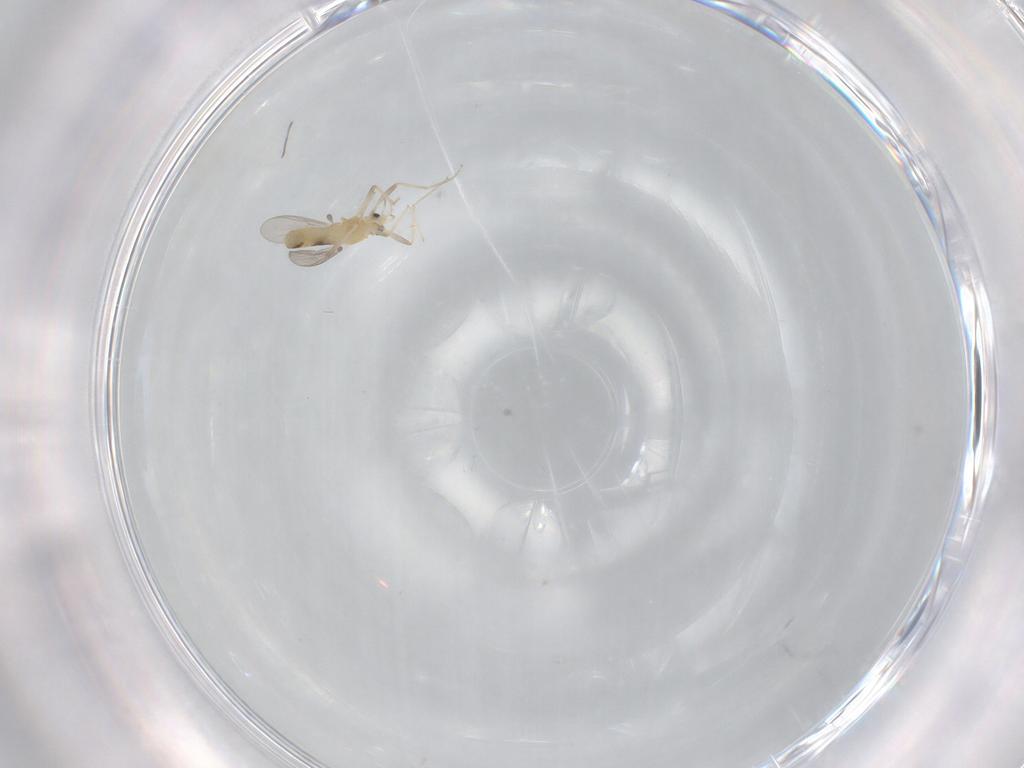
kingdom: Animalia
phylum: Arthropoda
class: Insecta
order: Diptera
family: Chironomidae
